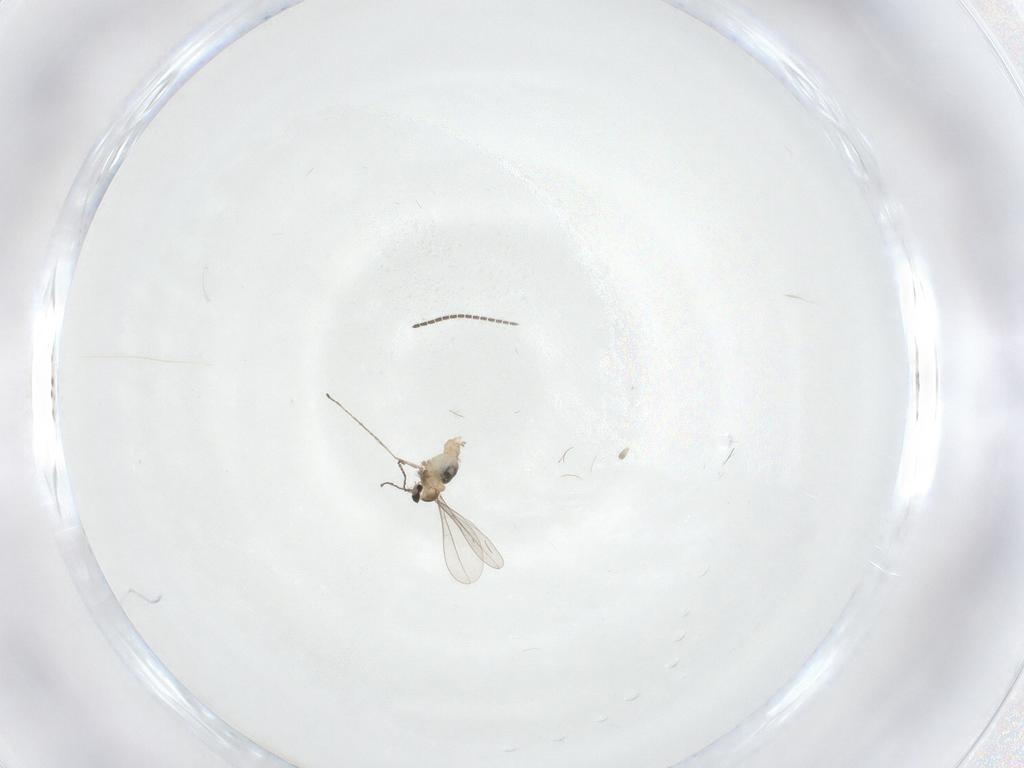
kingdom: Animalia
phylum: Arthropoda
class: Insecta
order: Diptera
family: Cecidomyiidae
